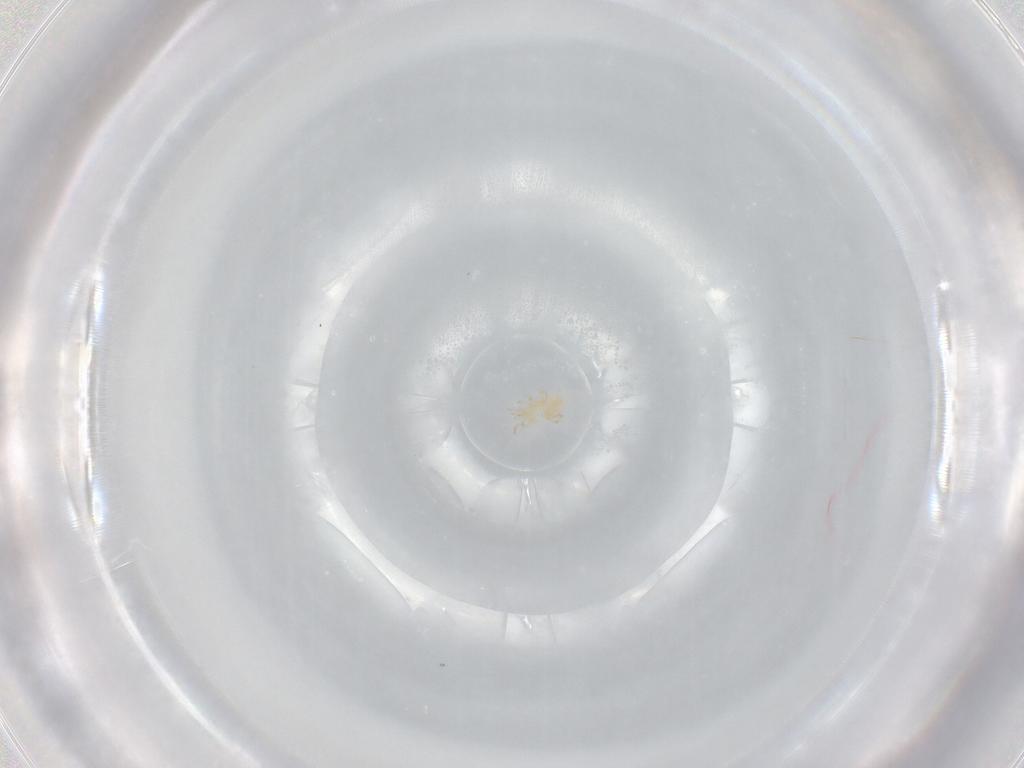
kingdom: Animalia
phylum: Arthropoda
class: Arachnida
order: Mesostigmata
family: Phytoseiidae
